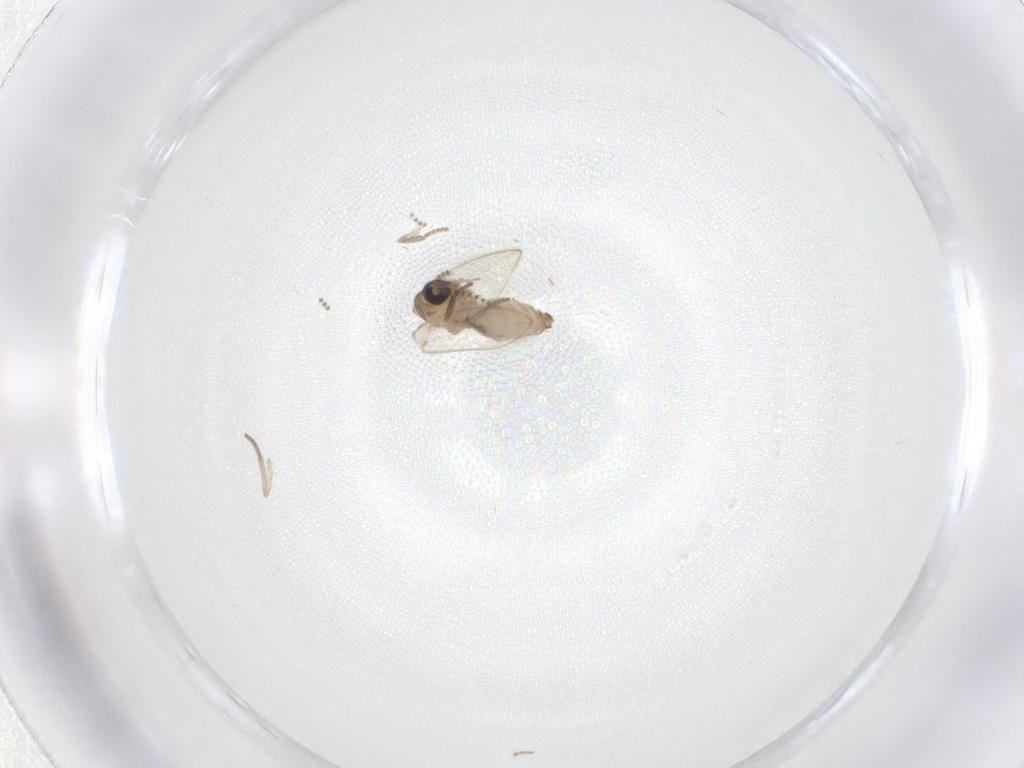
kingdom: Animalia
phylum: Arthropoda
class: Insecta
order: Diptera
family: Psychodidae
